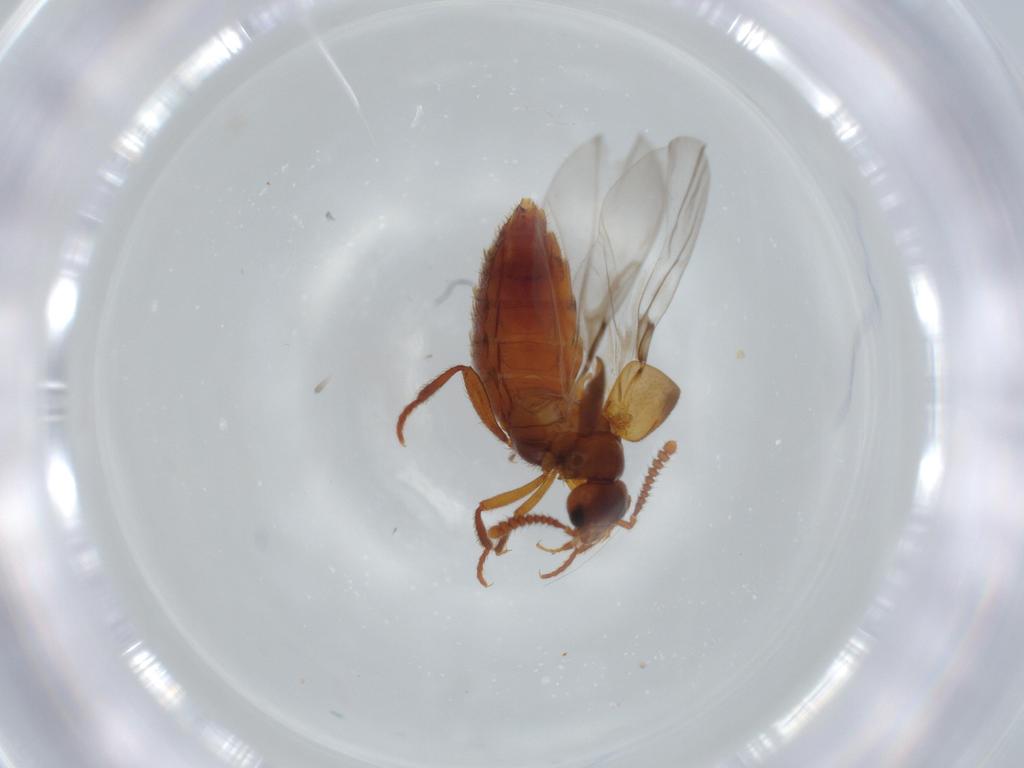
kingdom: Animalia
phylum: Arthropoda
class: Insecta
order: Coleoptera
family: Staphylinidae
